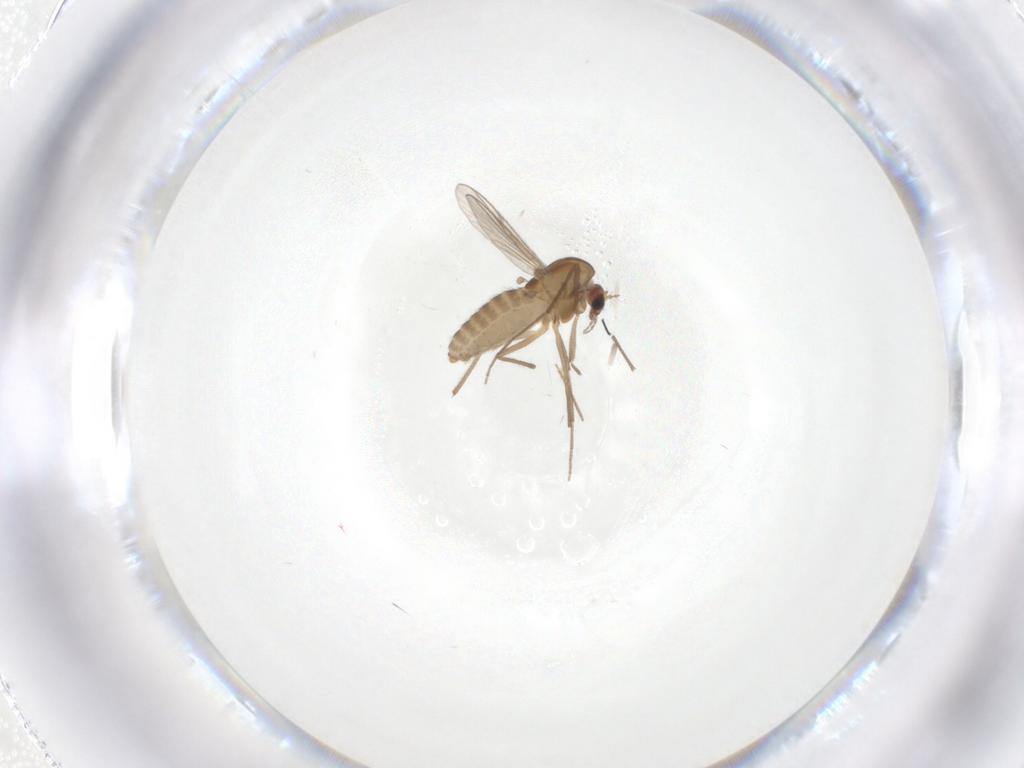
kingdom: Animalia
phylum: Arthropoda
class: Insecta
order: Diptera
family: Chironomidae
